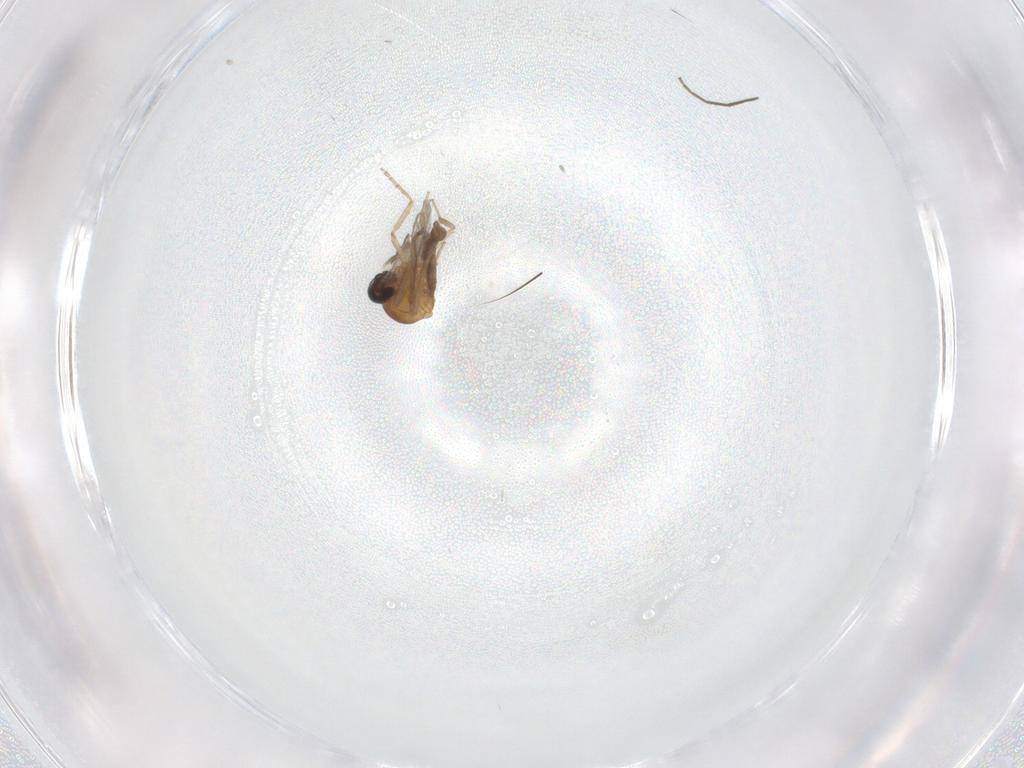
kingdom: Animalia
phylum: Arthropoda
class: Insecta
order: Diptera
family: Ceratopogonidae
